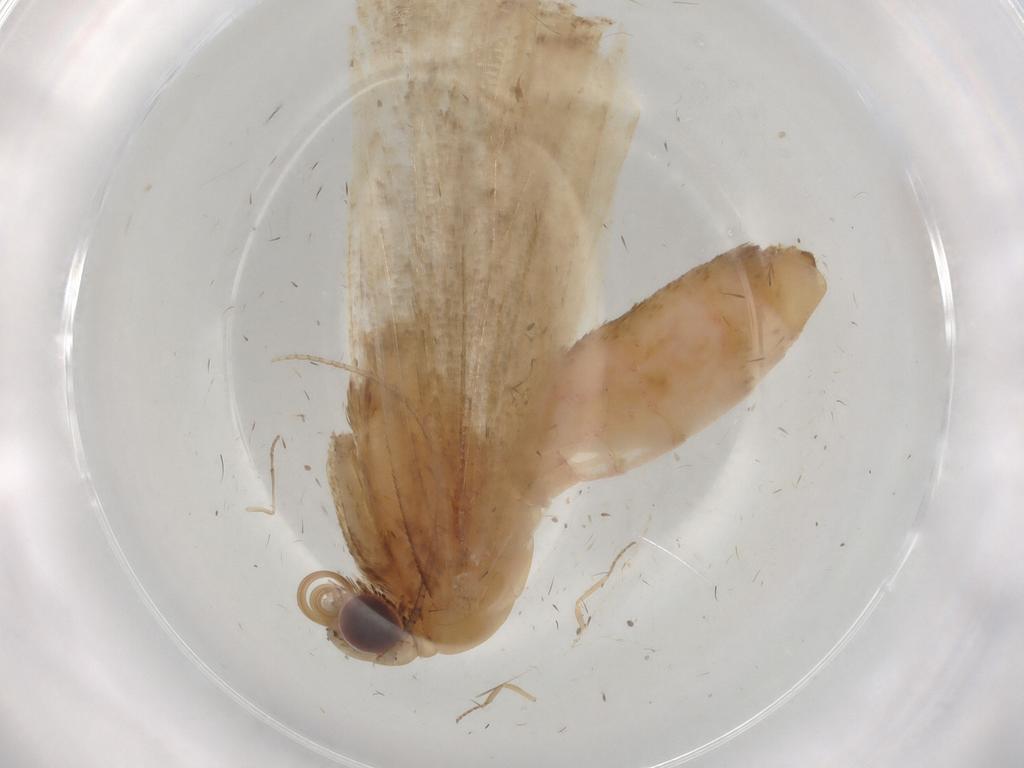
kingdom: Animalia
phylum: Arthropoda
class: Insecta
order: Lepidoptera
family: Erebidae
